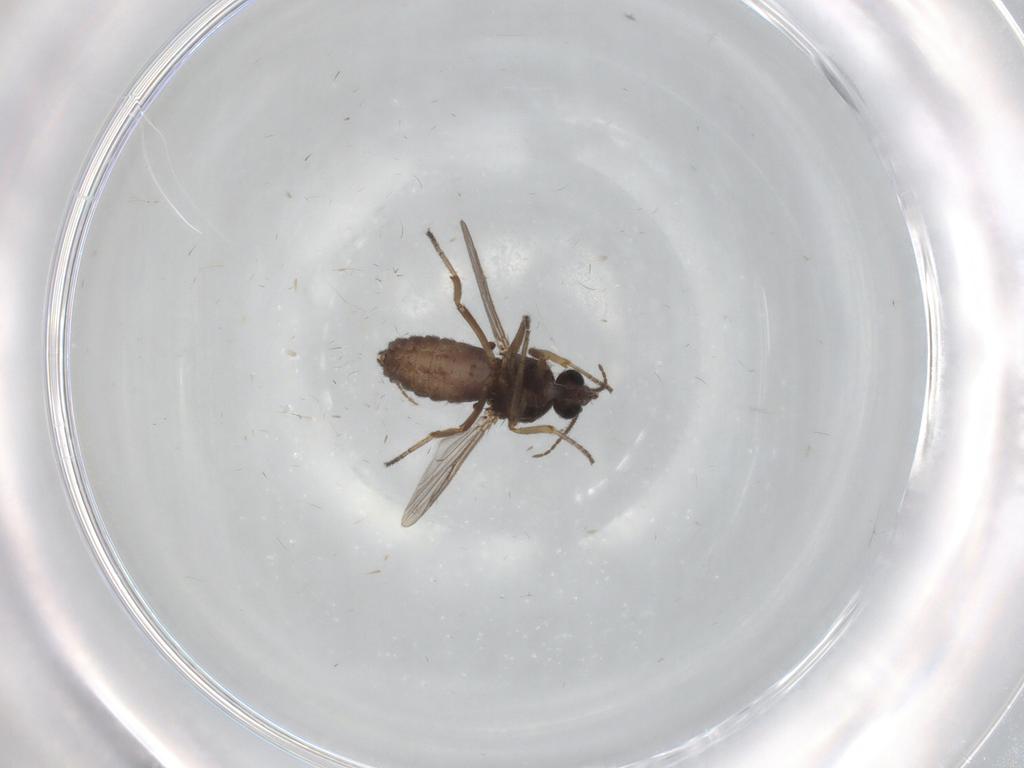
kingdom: Animalia
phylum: Arthropoda
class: Insecta
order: Diptera
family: Ceratopogonidae
